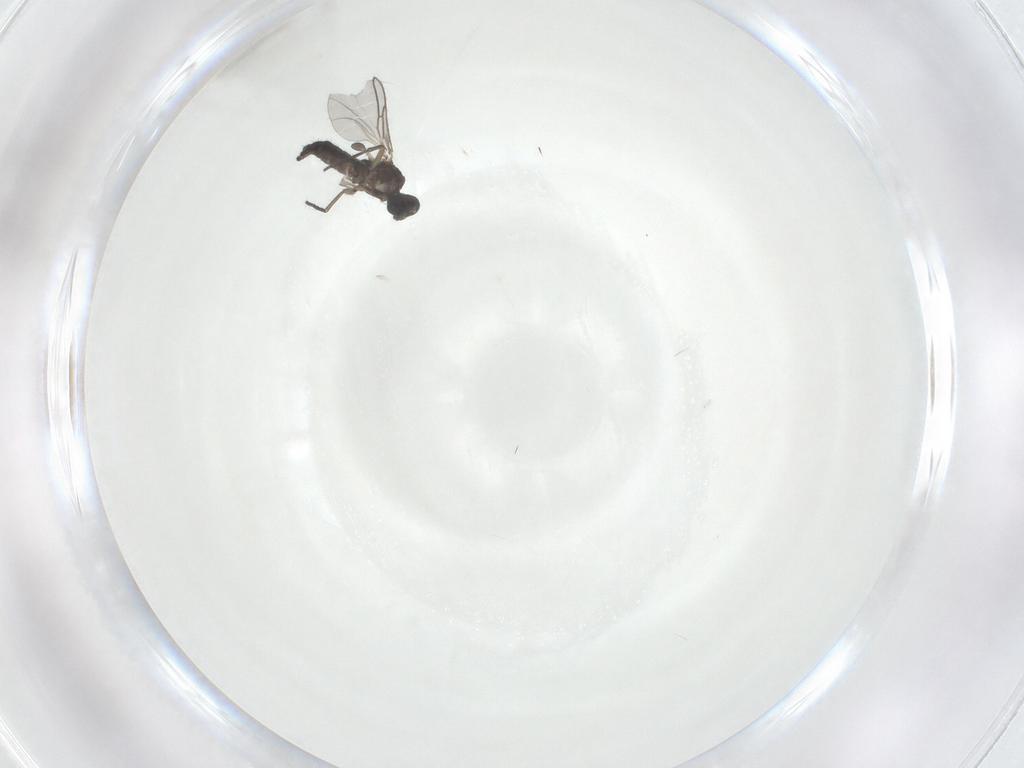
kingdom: Animalia
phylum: Arthropoda
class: Insecta
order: Diptera
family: Sciaridae
